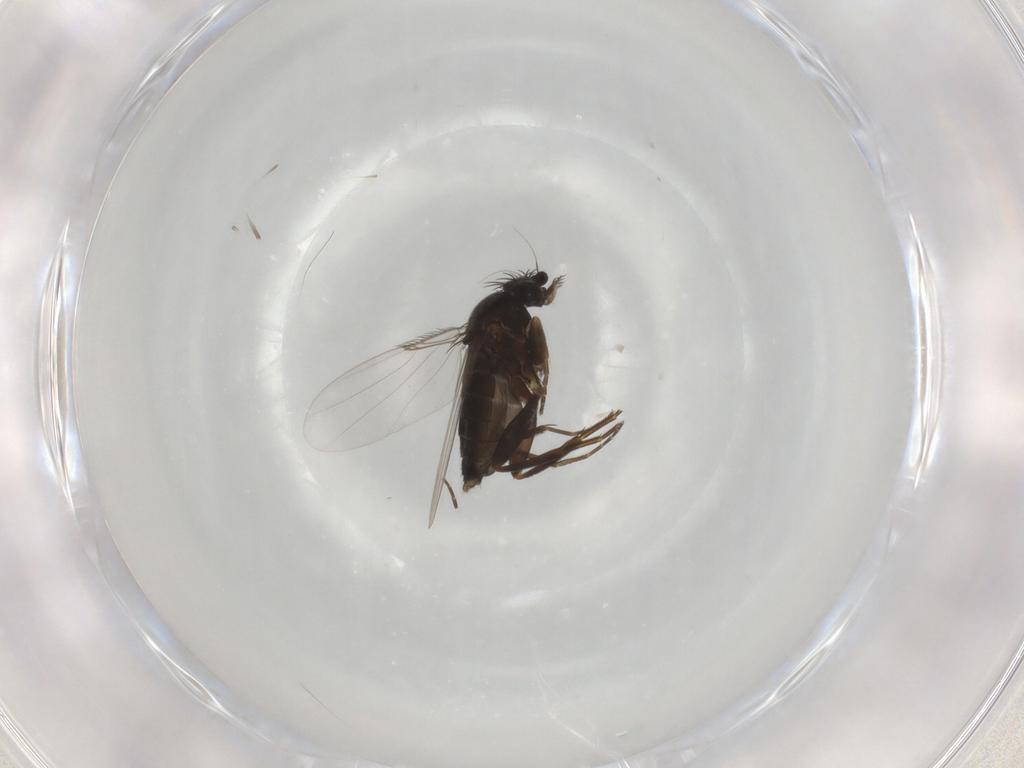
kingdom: Animalia
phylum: Arthropoda
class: Insecta
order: Diptera
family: Phoridae
